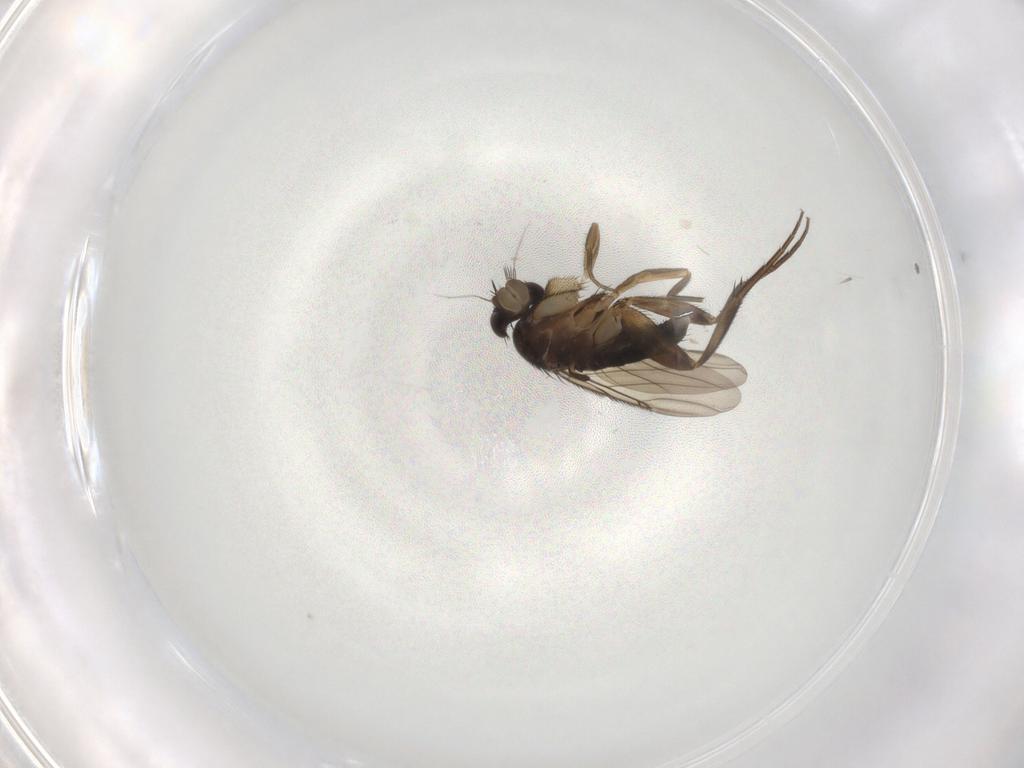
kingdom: Animalia
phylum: Arthropoda
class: Insecta
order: Diptera
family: Phoridae
